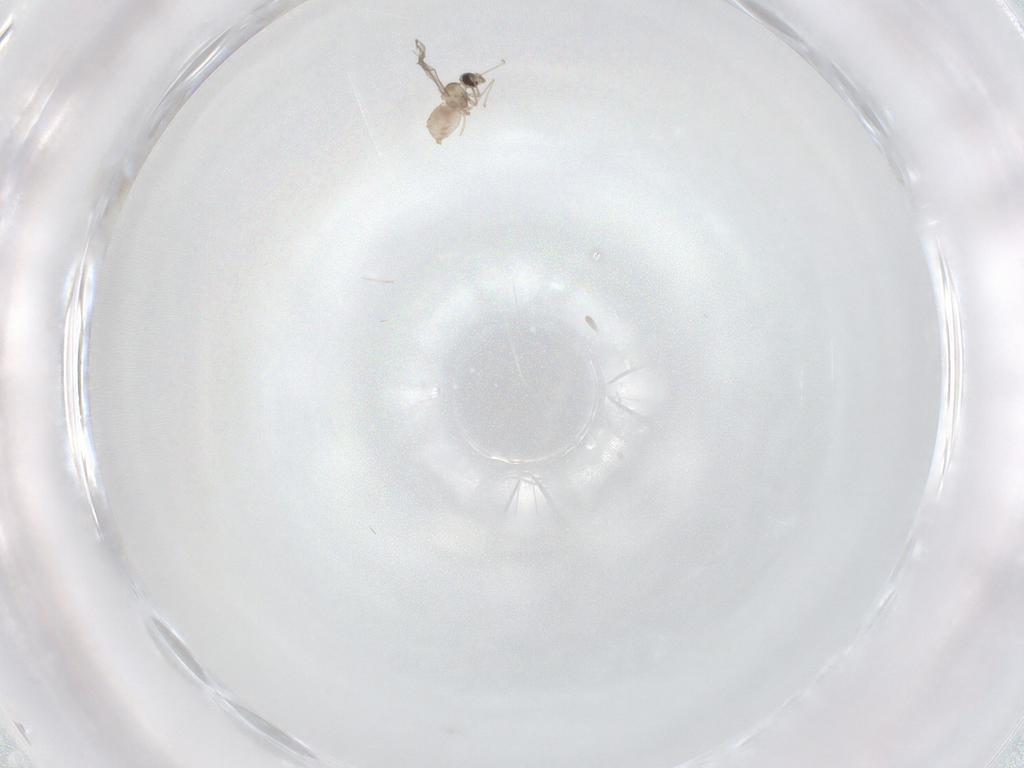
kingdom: Animalia
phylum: Arthropoda
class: Insecta
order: Diptera
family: Cecidomyiidae
